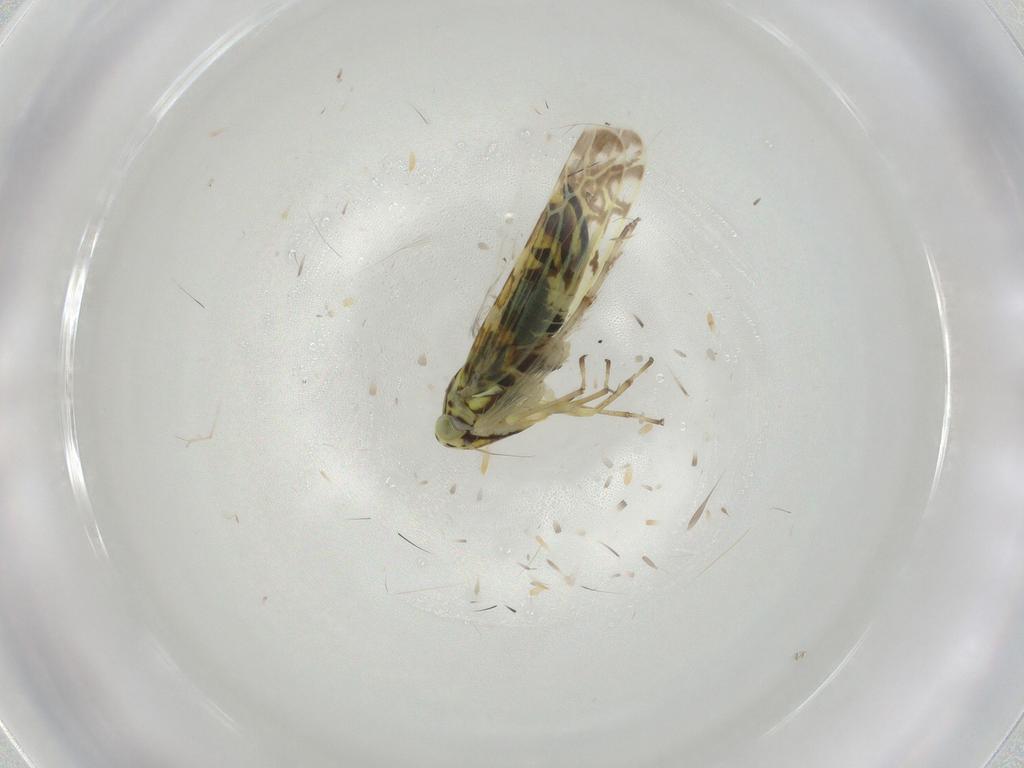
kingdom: Animalia
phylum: Arthropoda
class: Insecta
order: Hemiptera
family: Cicadellidae
